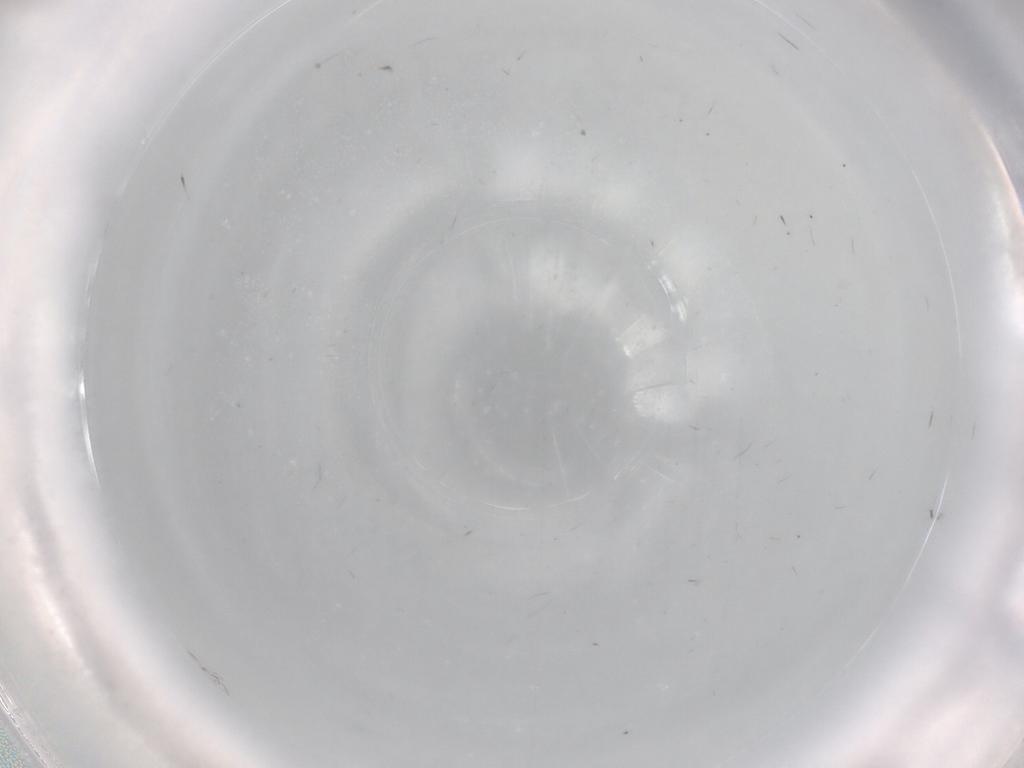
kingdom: Animalia
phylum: Arthropoda
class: Arachnida
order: Trombidiformes
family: Eupodidae
